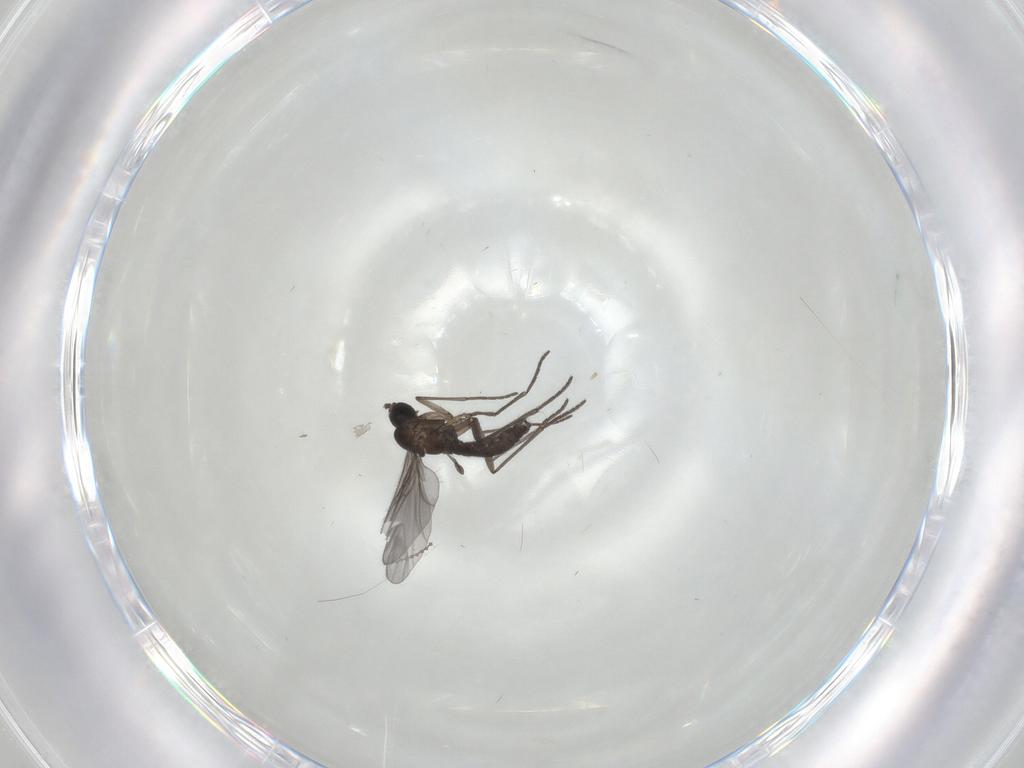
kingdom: Animalia
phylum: Arthropoda
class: Insecta
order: Diptera
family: Cecidomyiidae
